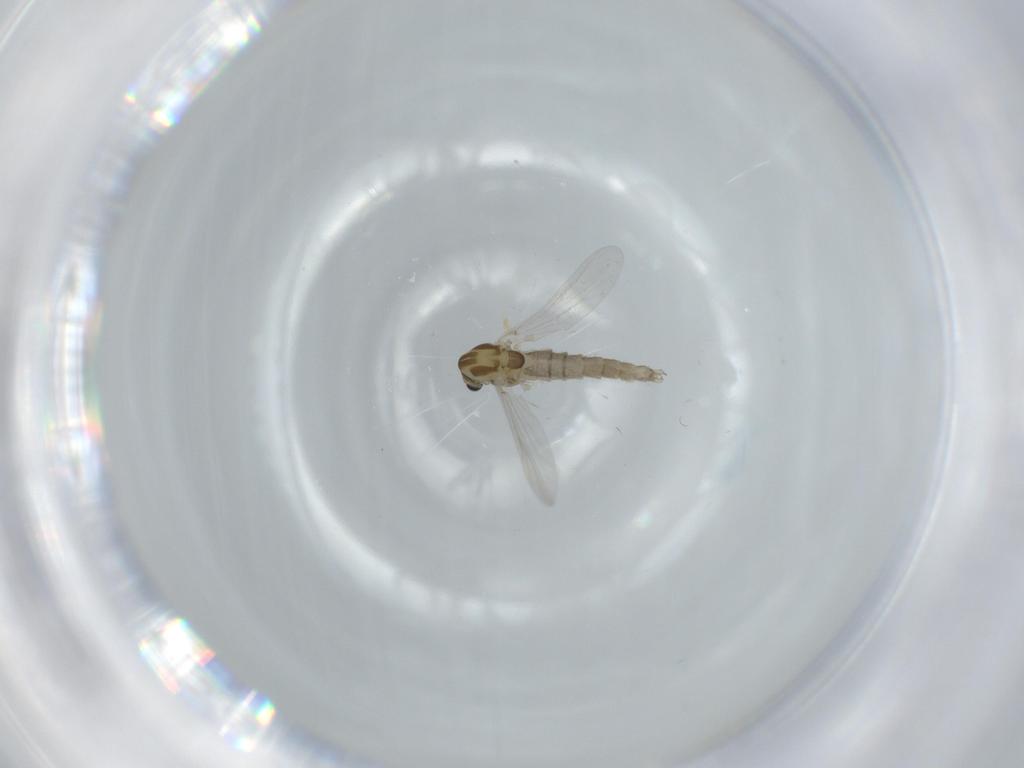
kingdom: Animalia
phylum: Arthropoda
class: Insecta
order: Diptera
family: Chironomidae
